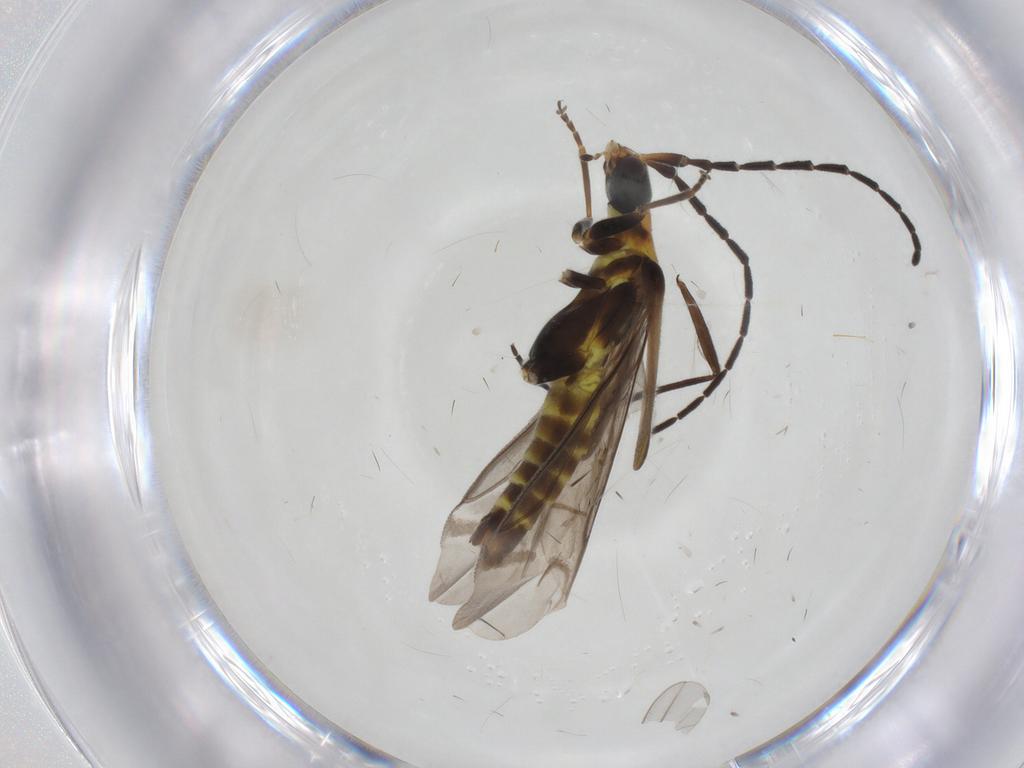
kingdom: Animalia
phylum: Arthropoda
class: Insecta
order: Coleoptera
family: Cantharidae
